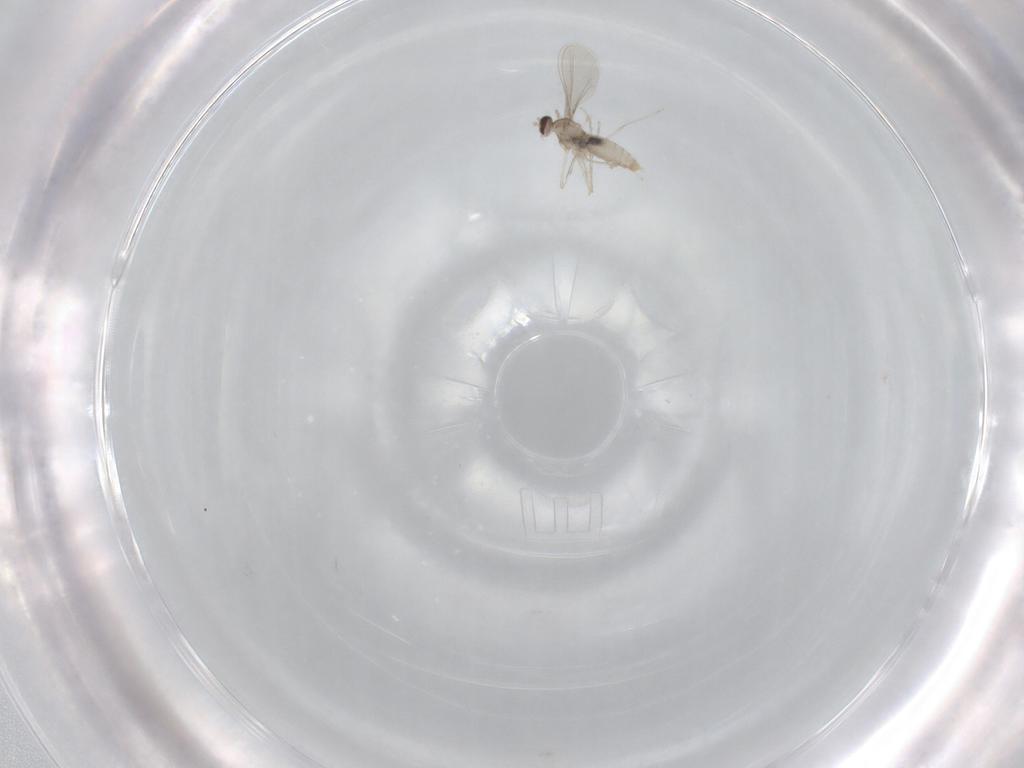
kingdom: Animalia
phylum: Arthropoda
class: Insecta
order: Diptera
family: Cecidomyiidae
